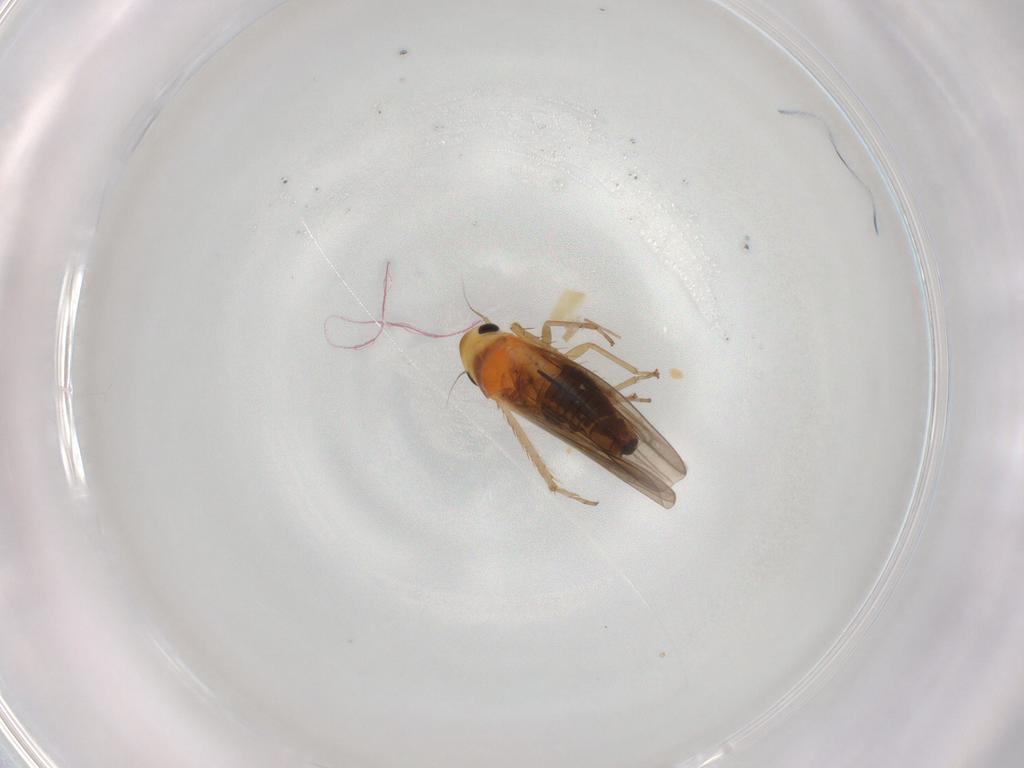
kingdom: Animalia
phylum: Arthropoda
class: Insecta
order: Hemiptera
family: Cicadellidae
